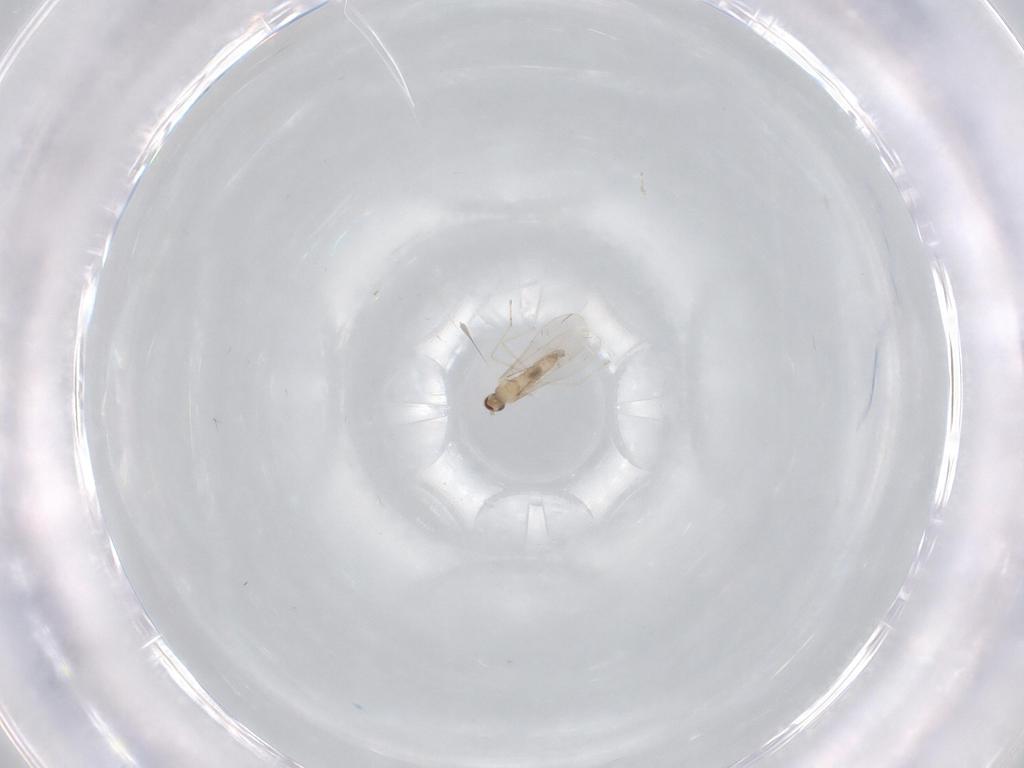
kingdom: Animalia
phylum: Arthropoda
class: Insecta
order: Diptera
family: Cecidomyiidae
